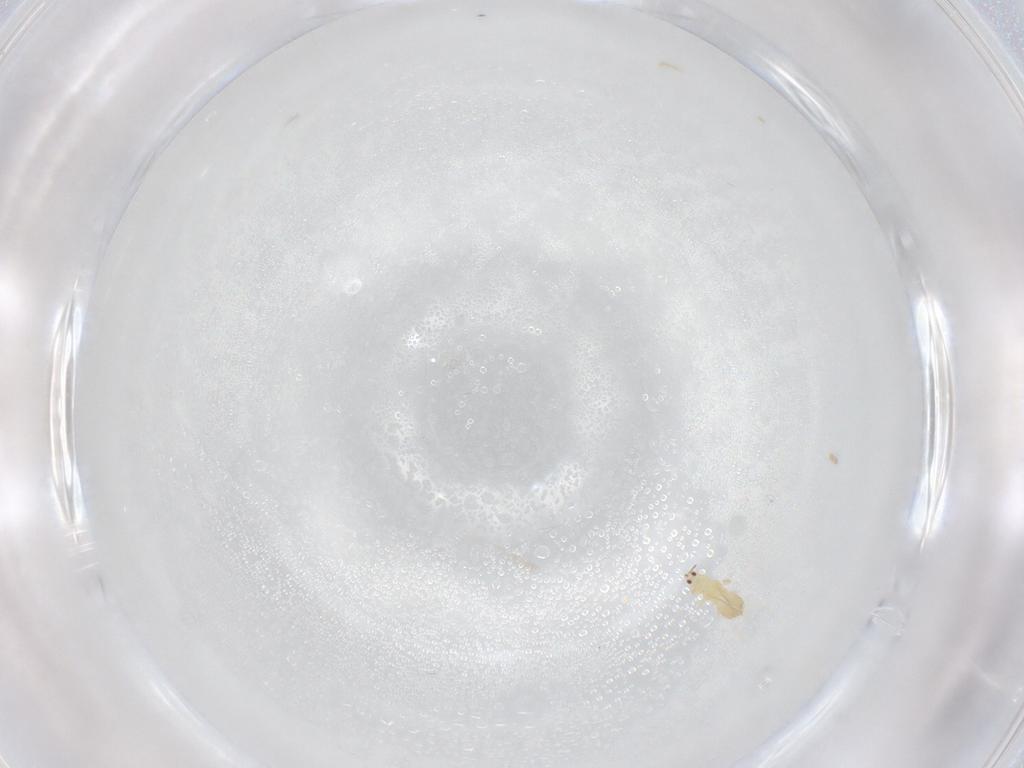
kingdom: Animalia
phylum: Arthropoda
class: Insecta
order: Thysanoptera
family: Thripidae
